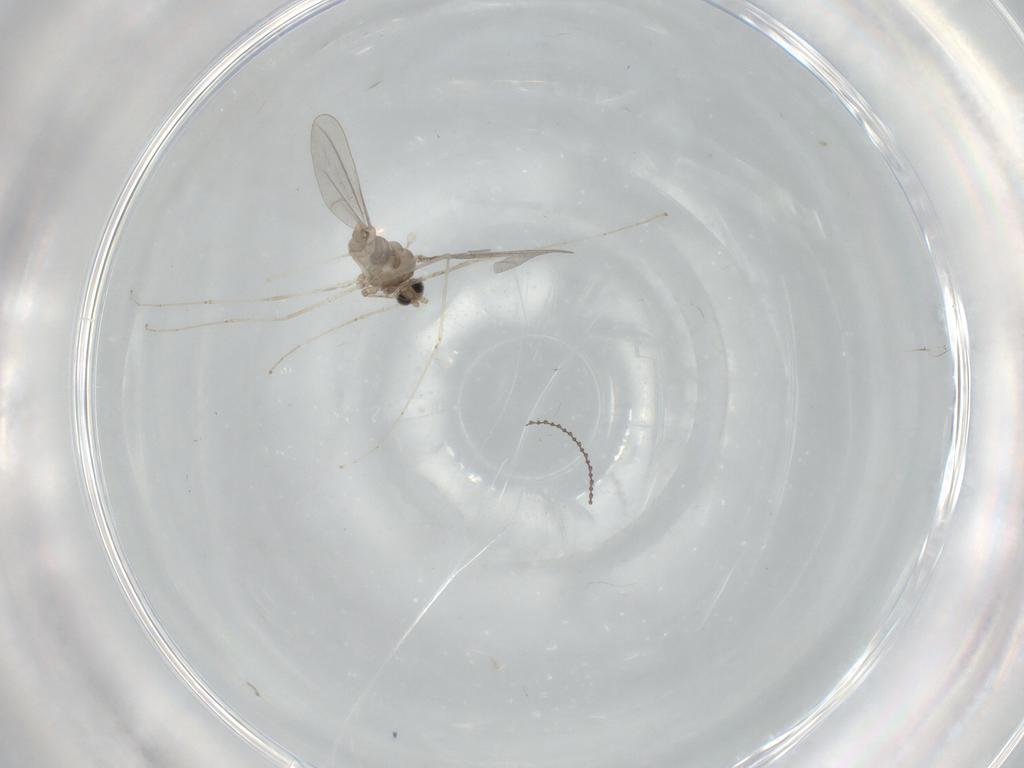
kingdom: Animalia
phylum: Arthropoda
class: Insecta
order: Diptera
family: Cecidomyiidae
